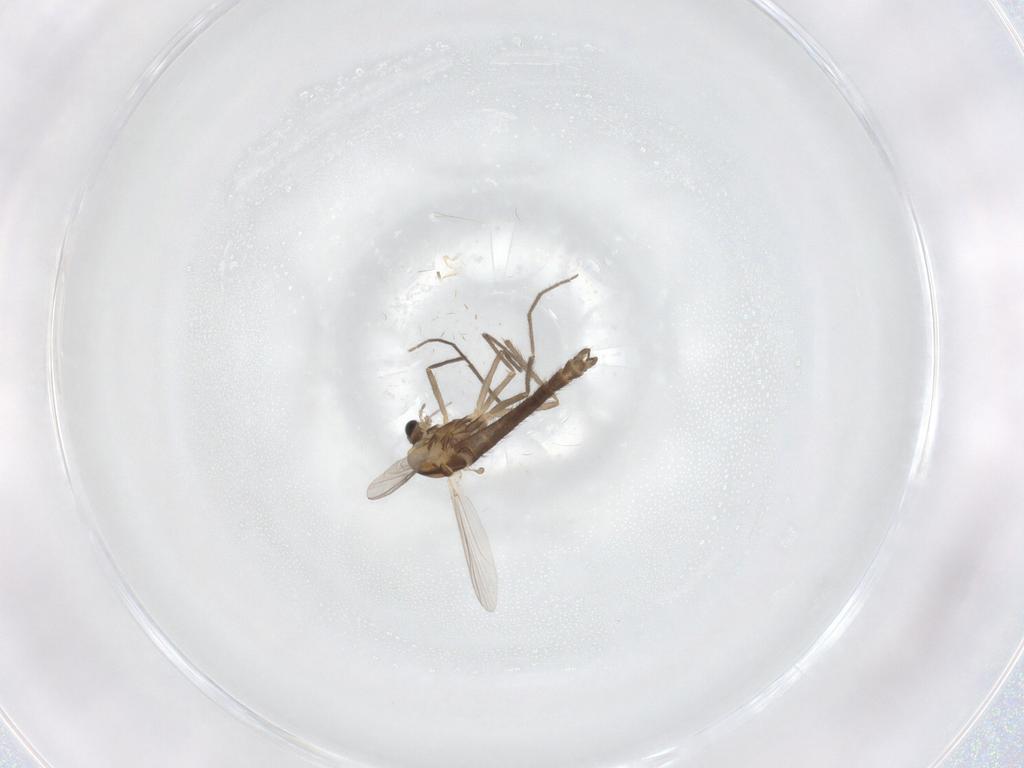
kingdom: Animalia
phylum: Arthropoda
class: Insecta
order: Diptera
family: Chironomidae
